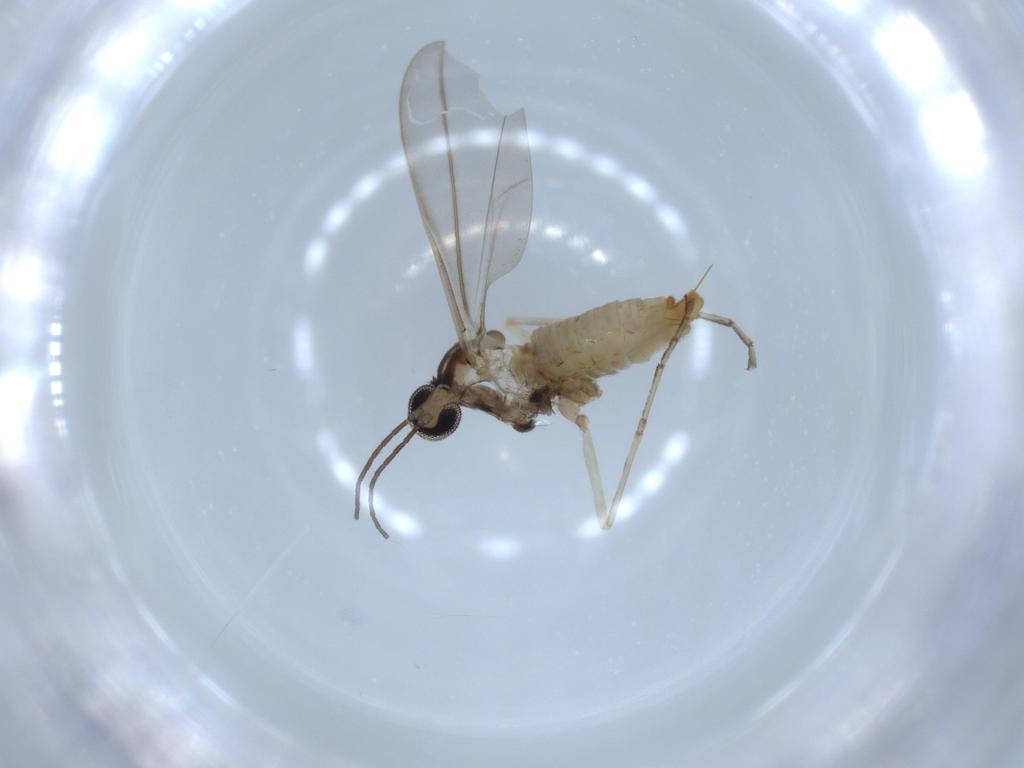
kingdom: Animalia
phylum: Arthropoda
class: Insecta
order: Diptera
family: Cecidomyiidae
